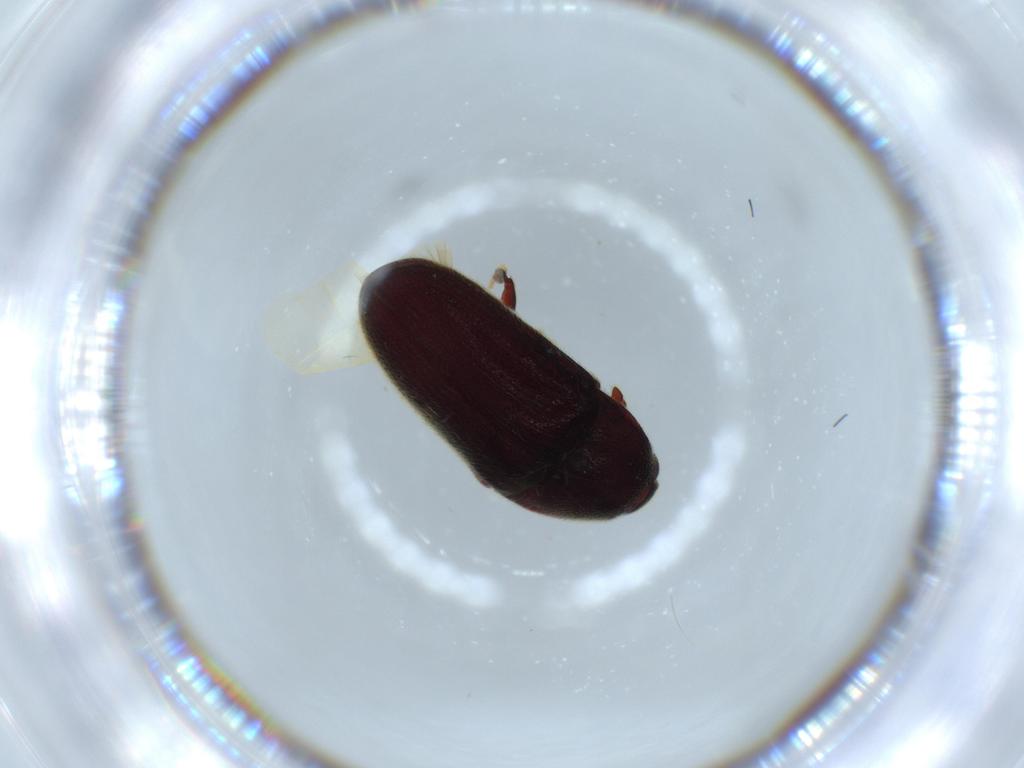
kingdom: Animalia
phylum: Arthropoda
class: Insecta
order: Coleoptera
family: Throscidae
